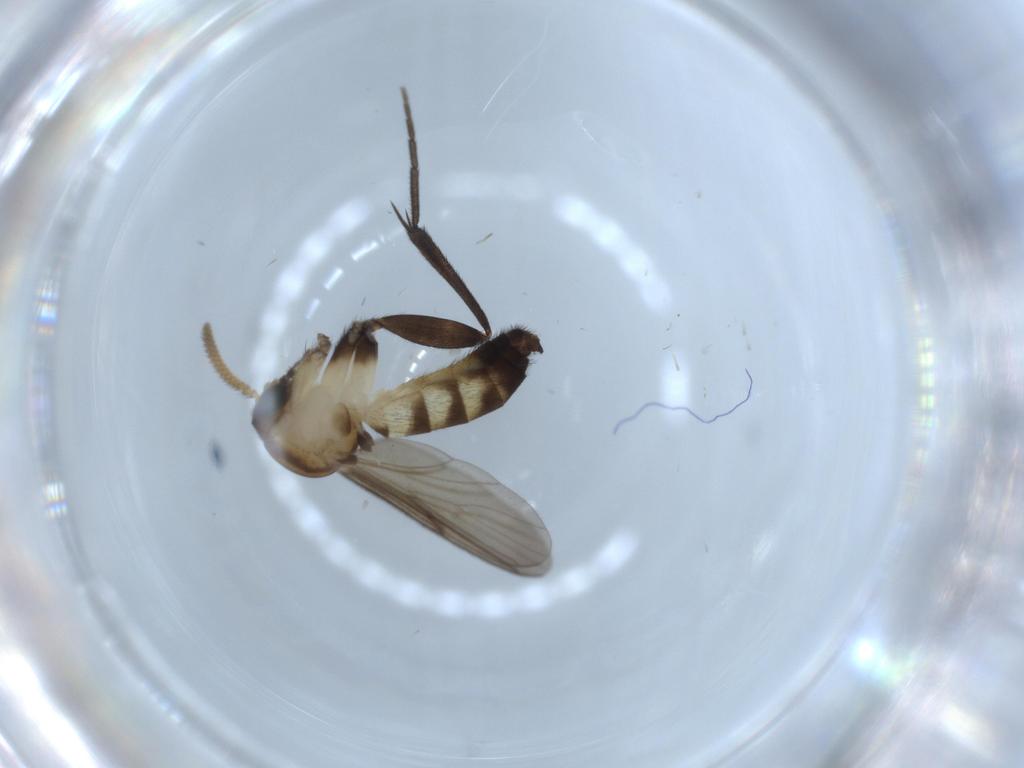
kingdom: Animalia
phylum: Arthropoda
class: Insecta
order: Diptera
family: Mycetophilidae
